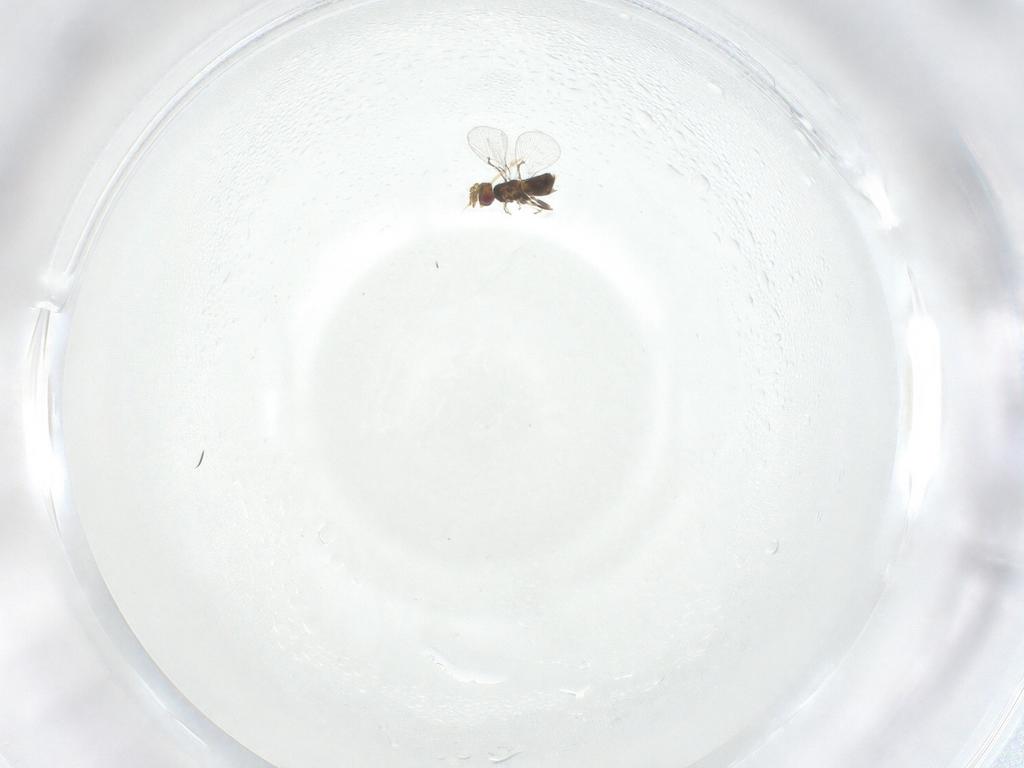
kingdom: Animalia
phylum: Arthropoda
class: Insecta
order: Hymenoptera
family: Trichogrammatidae
